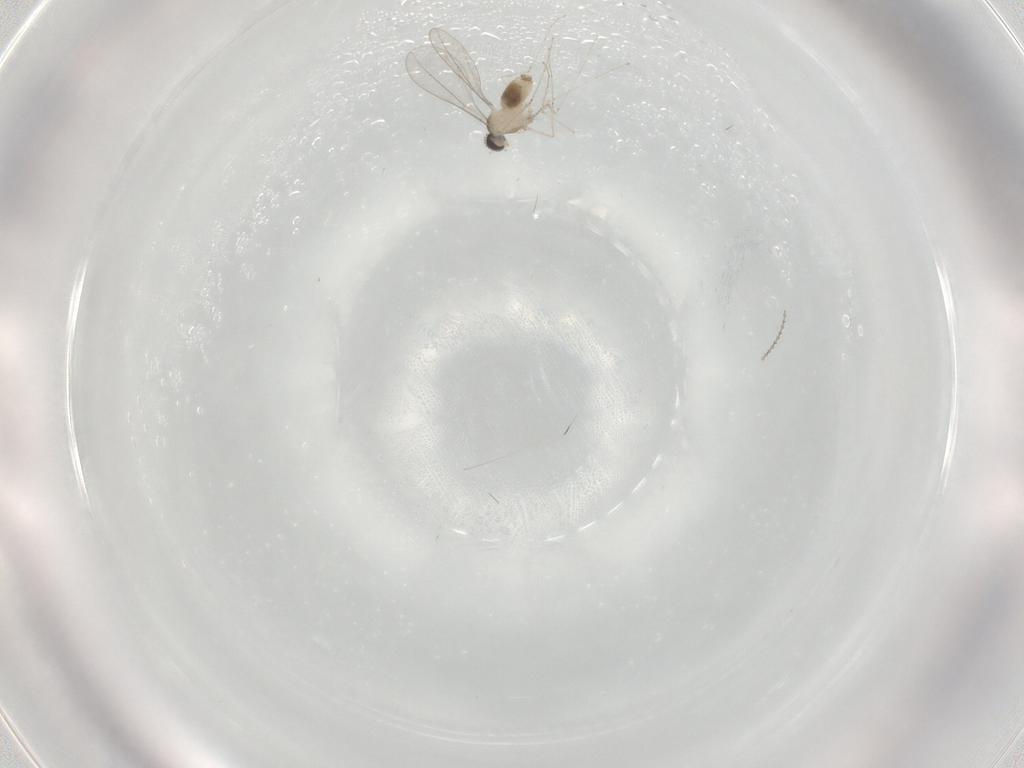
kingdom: Animalia
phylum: Arthropoda
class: Insecta
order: Diptera
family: Cecidomyiidae
